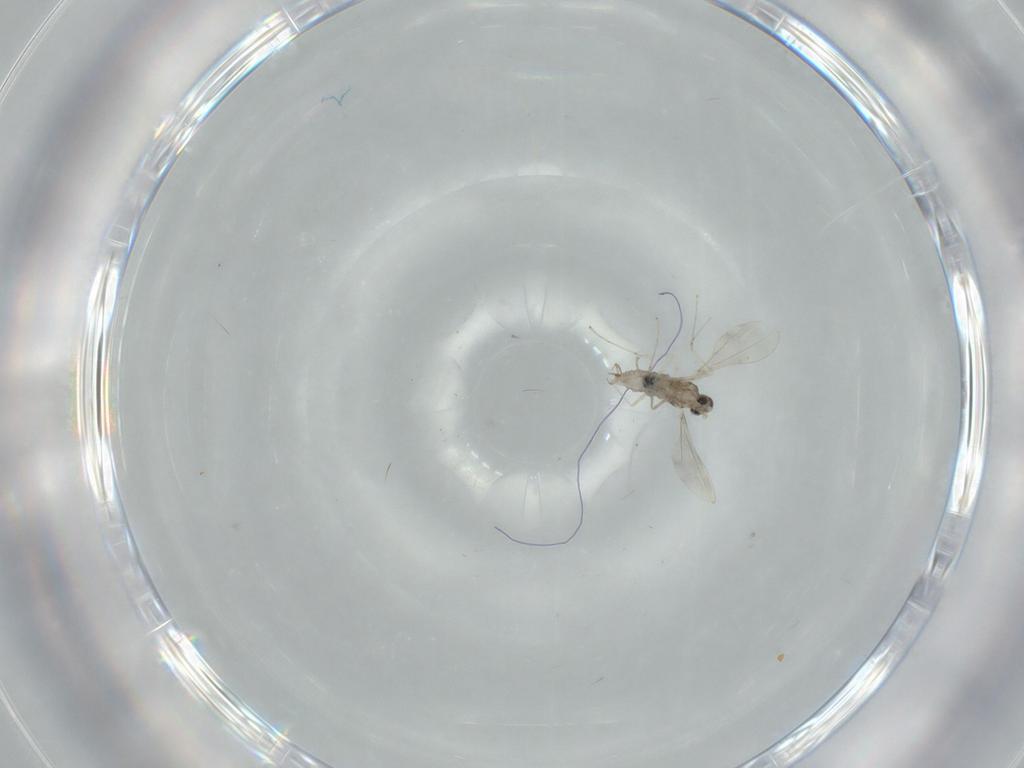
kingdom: Animalia
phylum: Arthropoda
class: Insecta
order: Diptera
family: Cecidomyiidae
